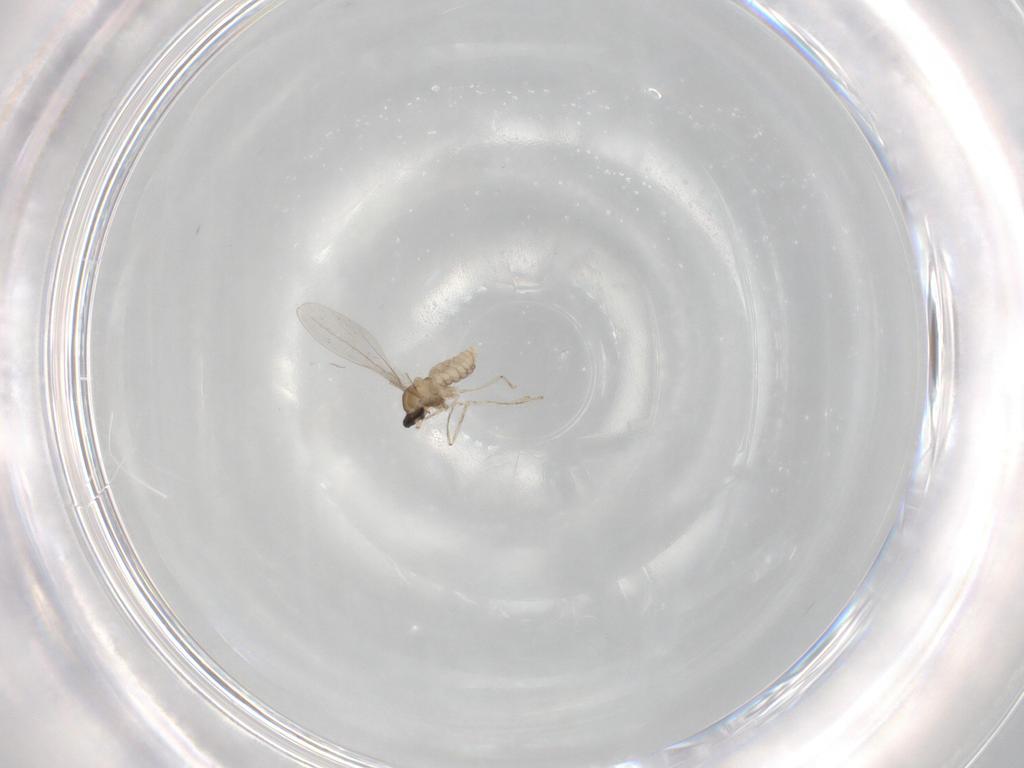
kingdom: Animalia
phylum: Arthropoda
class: Insecta
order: Diptera
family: Cecidomyiidae
